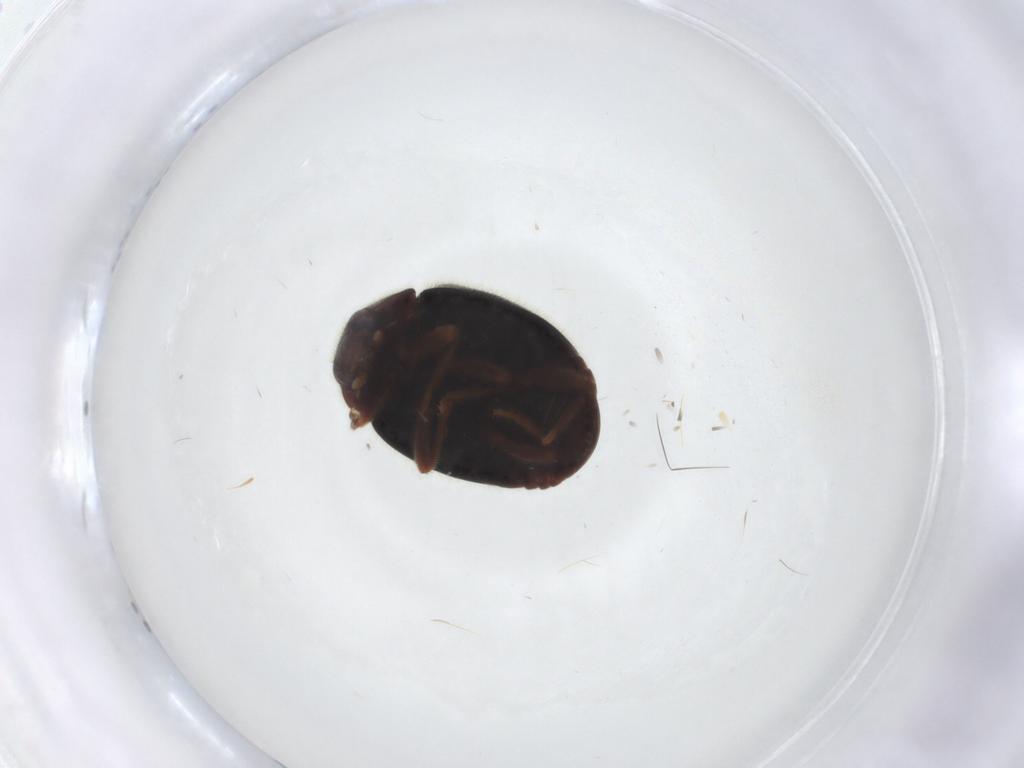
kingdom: Animalia
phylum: Arthropoda
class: Insecta
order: Coleoptera
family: Coccinellidae
